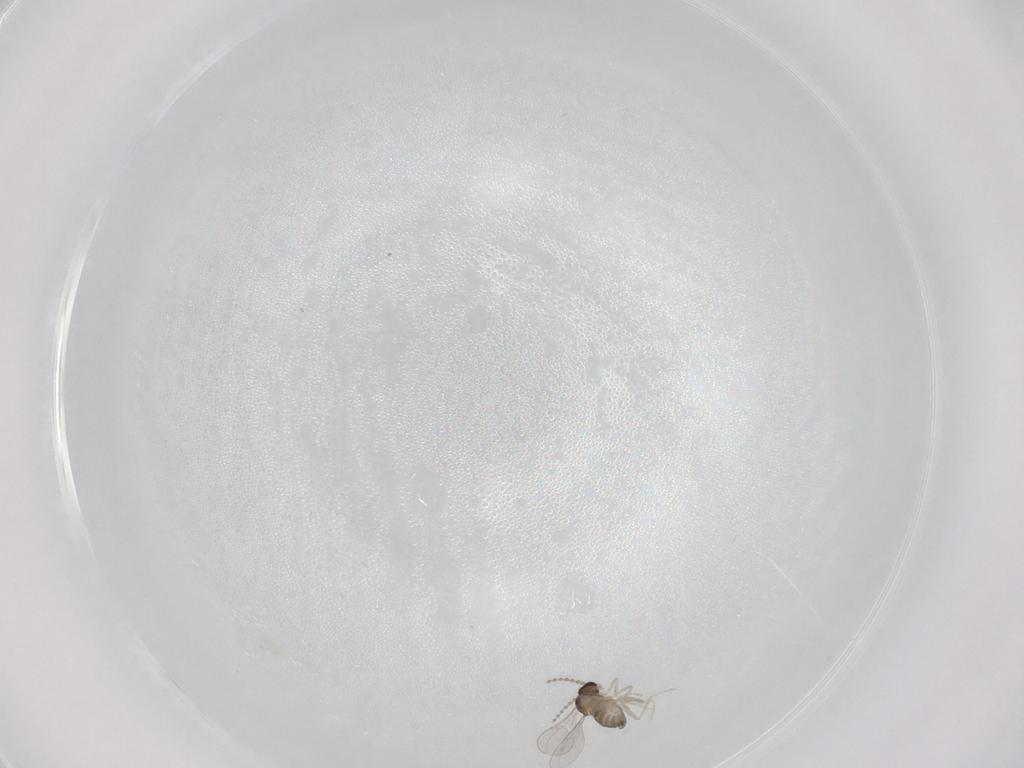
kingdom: Animalia
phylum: Arthropoda
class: Insecta
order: Diptera
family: Cecidomyiidae
